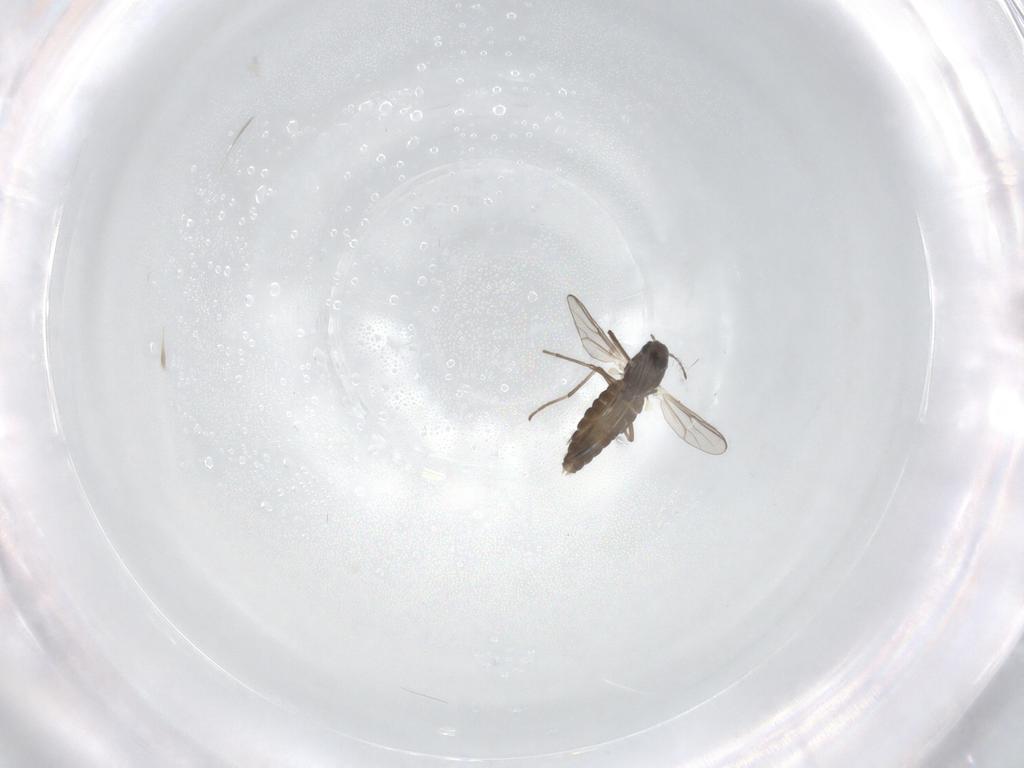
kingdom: Animalia
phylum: Arthropoda
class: Insecta
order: Diptera
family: Chironomidae
